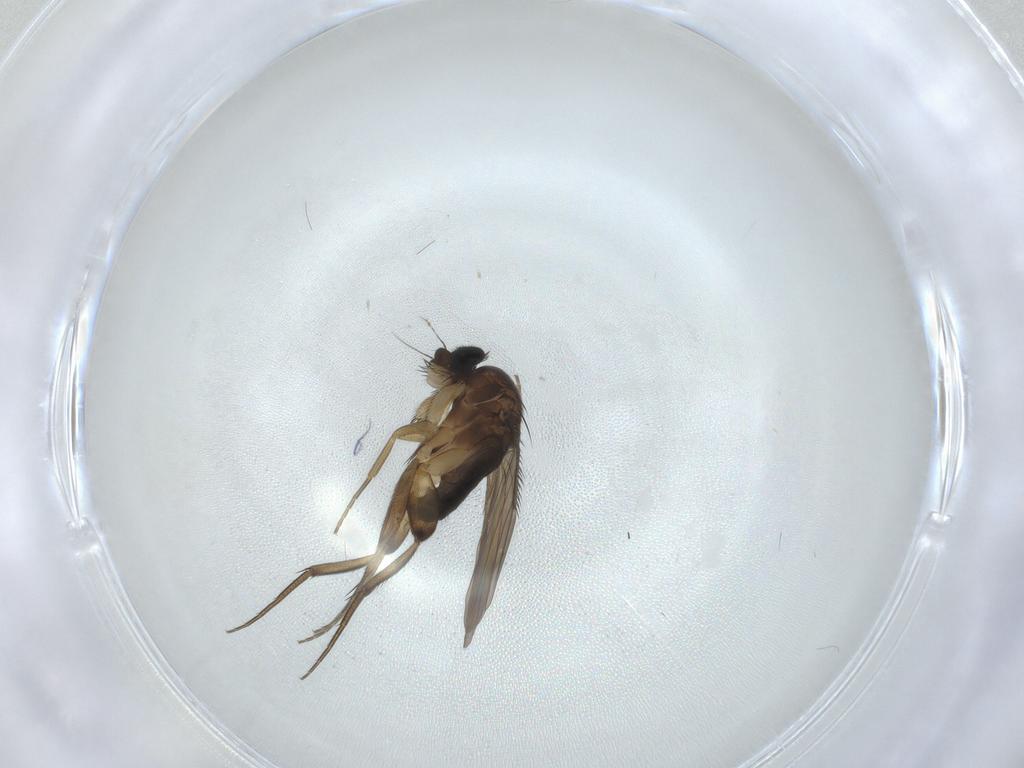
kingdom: Animalia
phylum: Arthropoda
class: Insecta
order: Diptera
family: Phoridae
